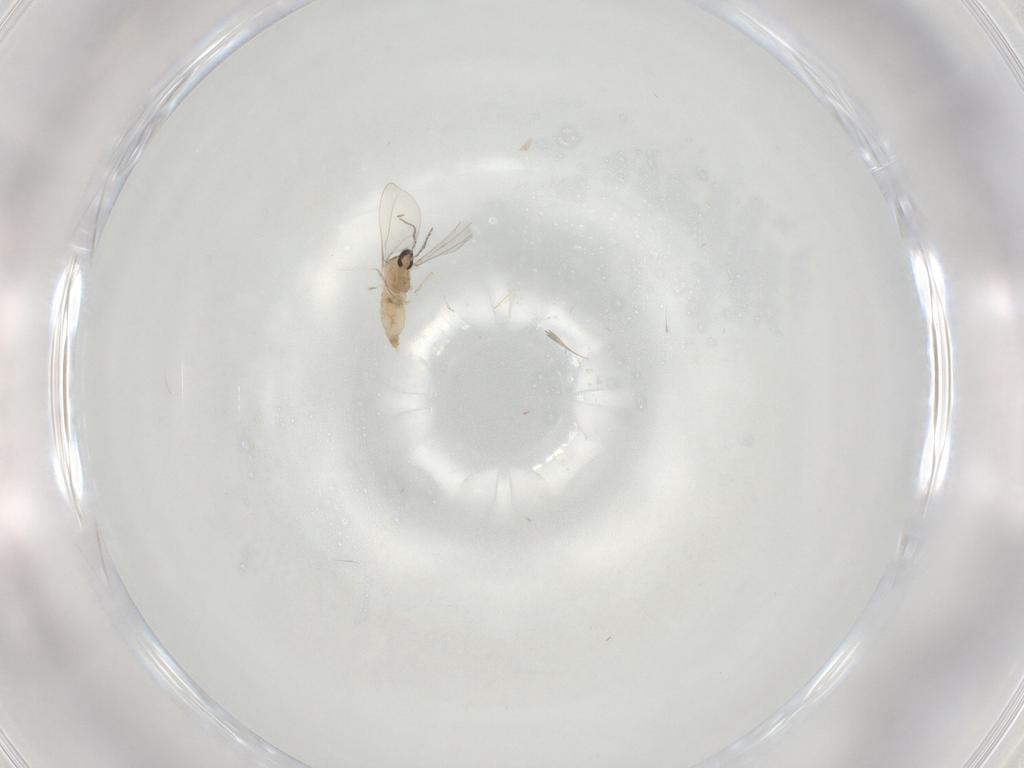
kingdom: Animalia
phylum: Arthropoda
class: Insecta
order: Diptera
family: Cecidomyiidae
